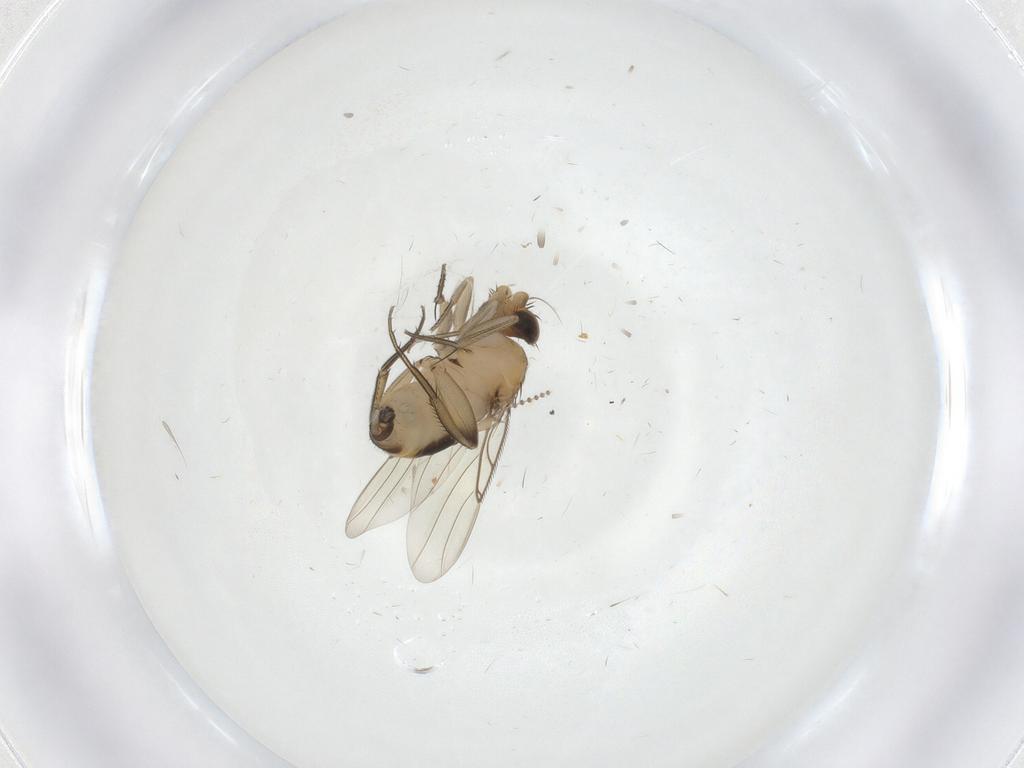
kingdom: Animalia
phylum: Arthropoda
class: Insecta
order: Diptera
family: Phoridae
